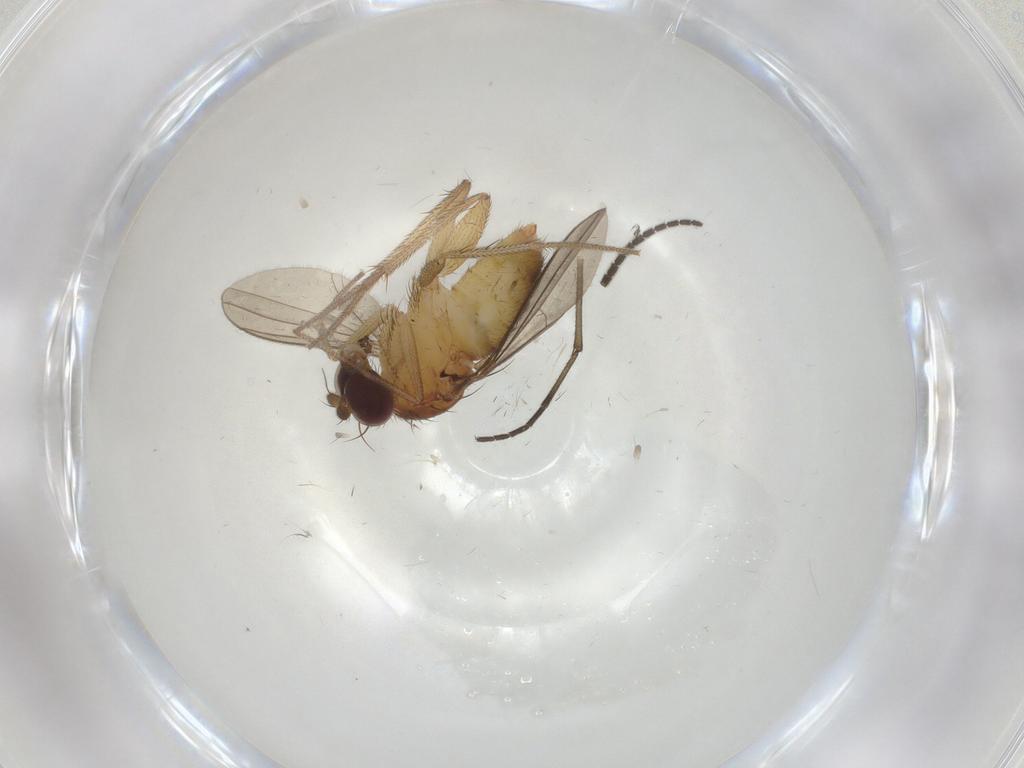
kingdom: Animalia
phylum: Arthropoda
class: Insecta
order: Diptera
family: Dolichopodidae
